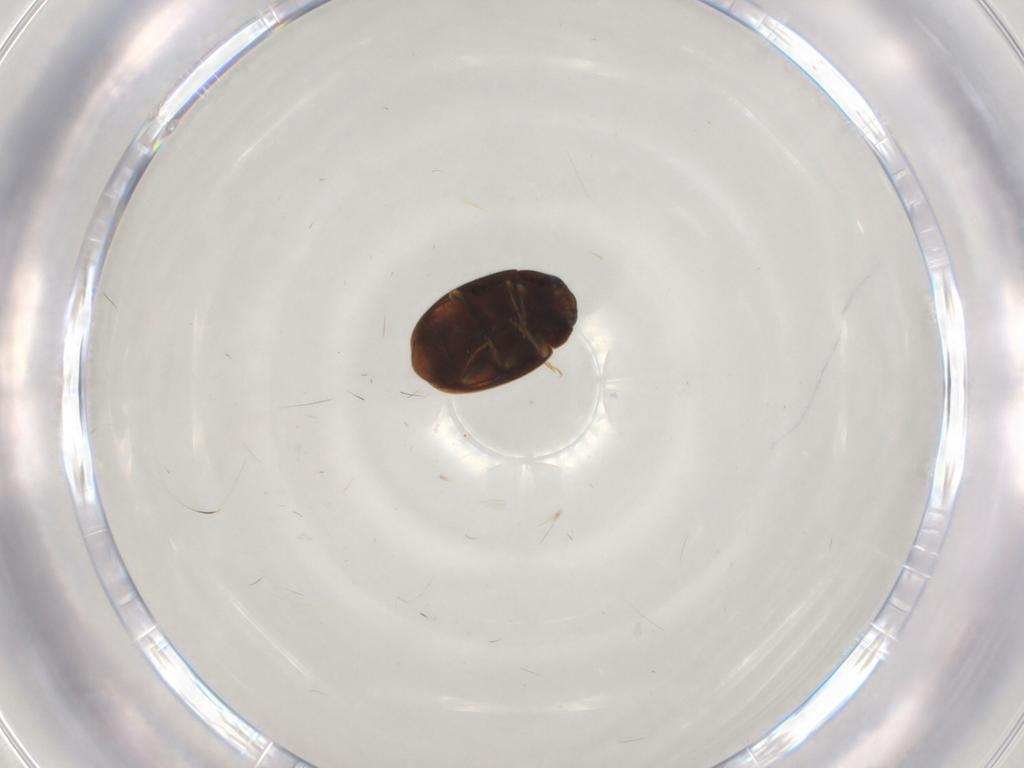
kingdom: Animalia
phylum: Arthropoda
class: Insecta
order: Coleoptera
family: Coccinellidae
